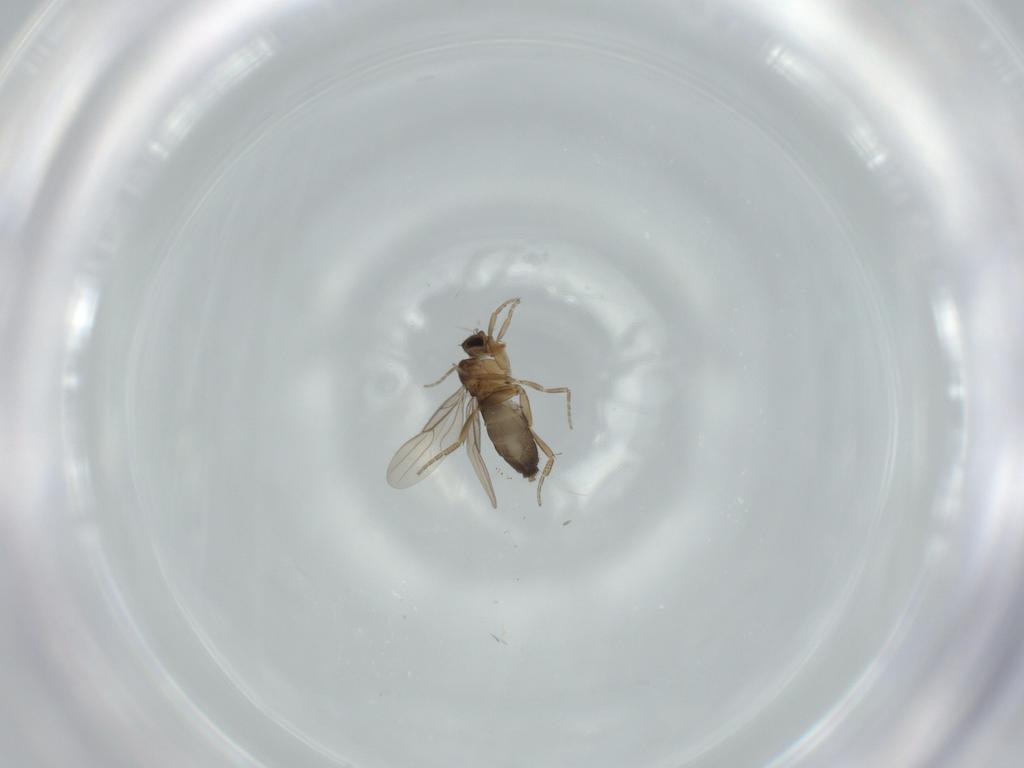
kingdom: Animalia
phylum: Arthropoda
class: Insecta
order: Diptera
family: Phoridae
